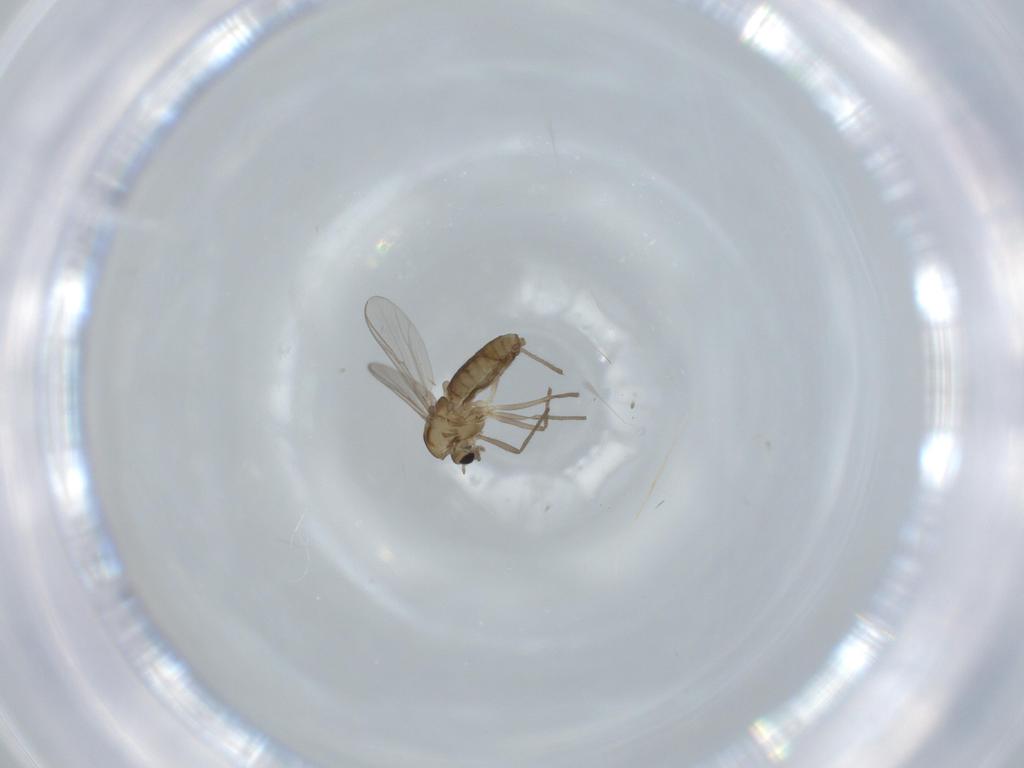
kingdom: Animalia
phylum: Arthropoda
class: Insecta
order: Diptera
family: Chironomidae
